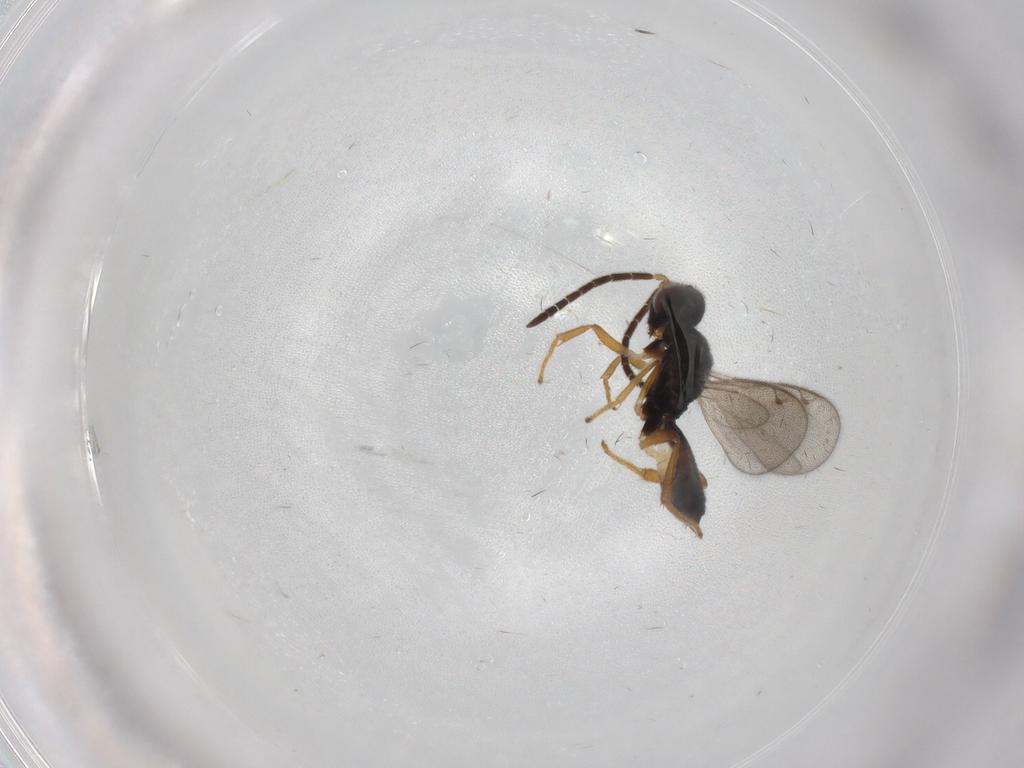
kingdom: Animalia
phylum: Arthropoda
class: Insecta
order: Hymenoptera
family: Eupelmidae
